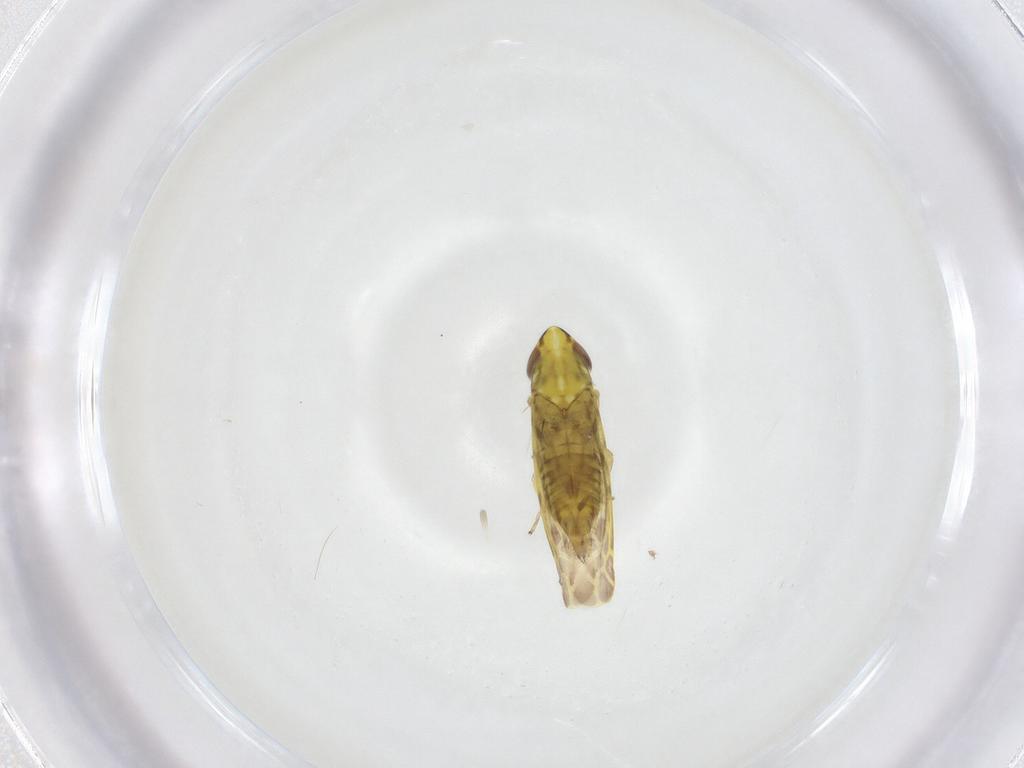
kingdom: Animalia
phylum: Arthropoda
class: Insecta
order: Hemiptera
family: Cicadellidae
